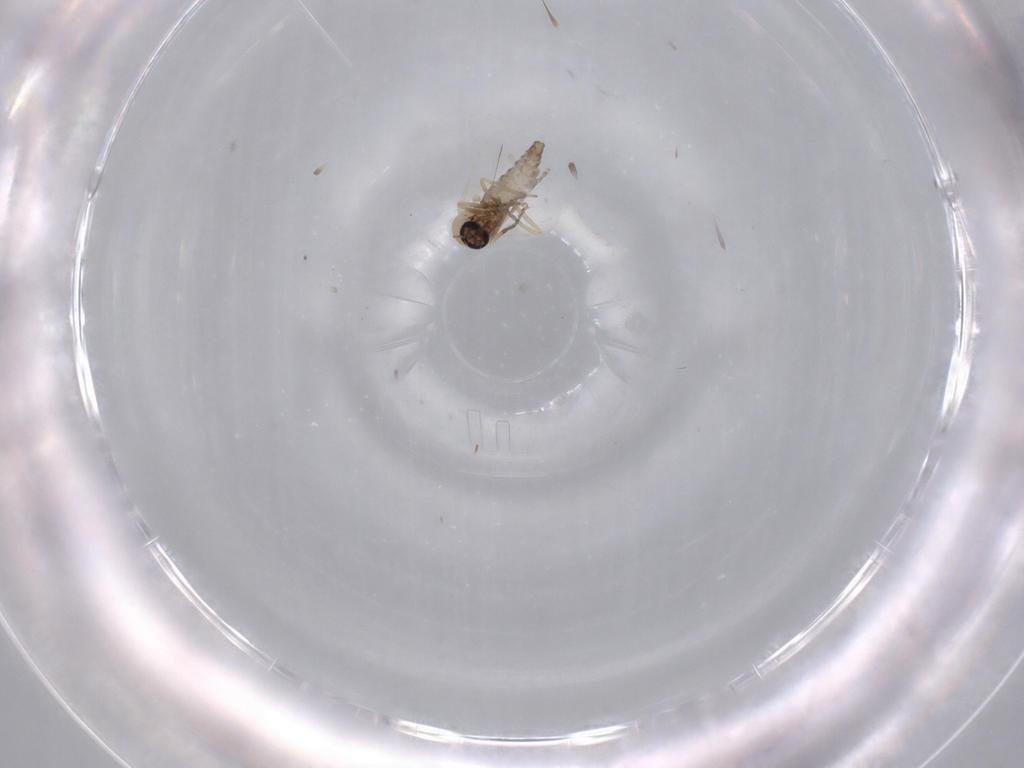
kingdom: Animalia
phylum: Arthropoda
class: Insecta
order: Diptera
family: Ceratopogonidae
